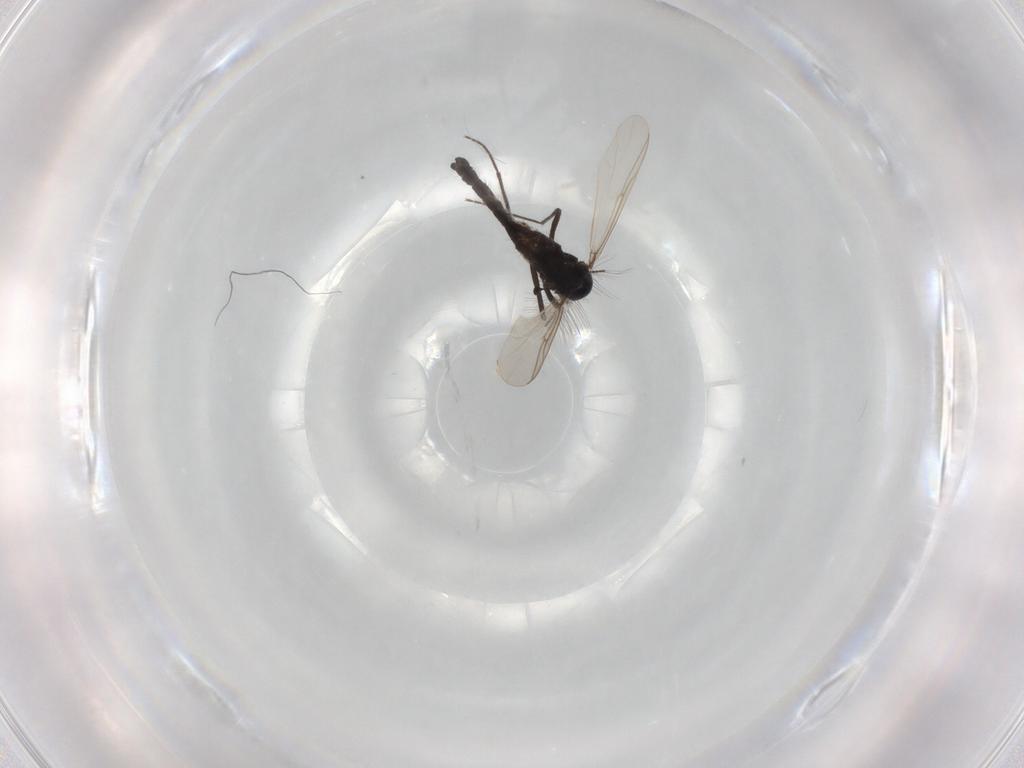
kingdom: Animalia
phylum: Arthropoda
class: Insecta
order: Diptera
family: Chironomidae
